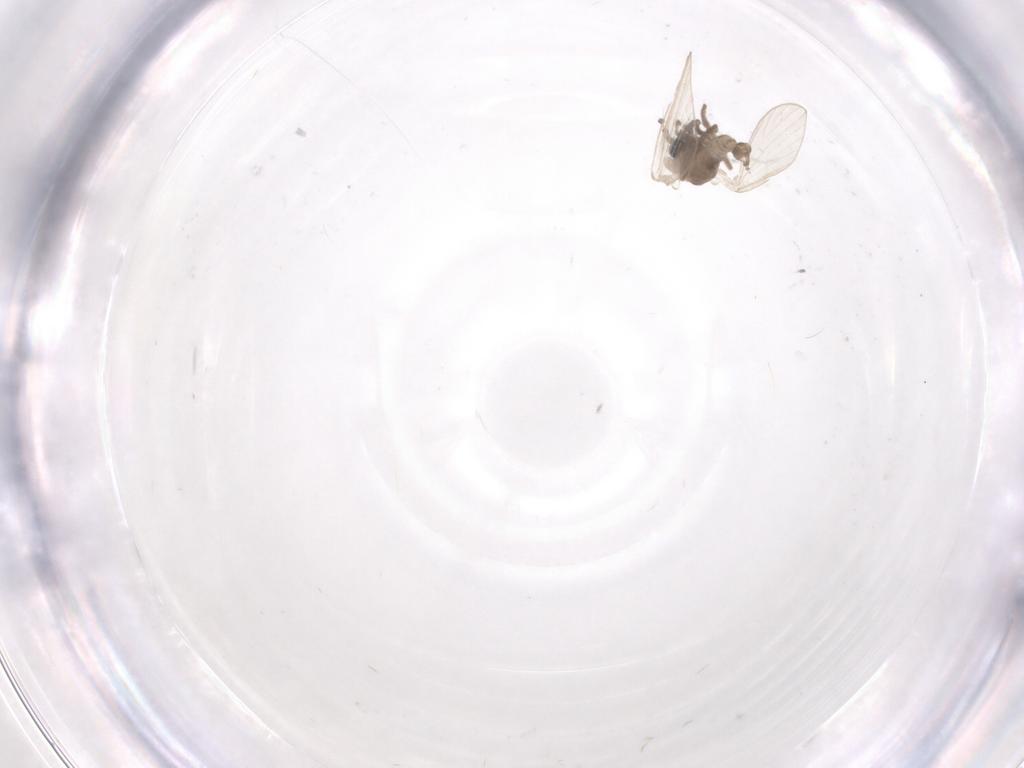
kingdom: Animalia
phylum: Arthropoda
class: Insecta
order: Diptera
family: Psychodidae
